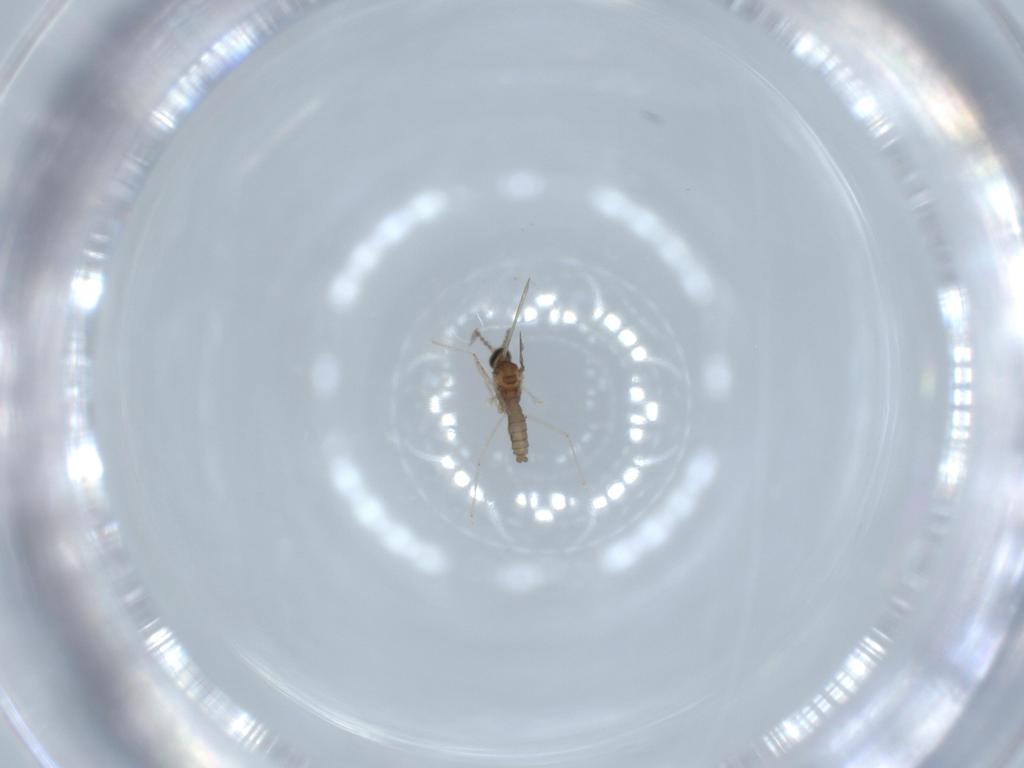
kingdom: Animalia
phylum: Arthropoda
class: Insecta
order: Diptera
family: Cecidomyiidae
